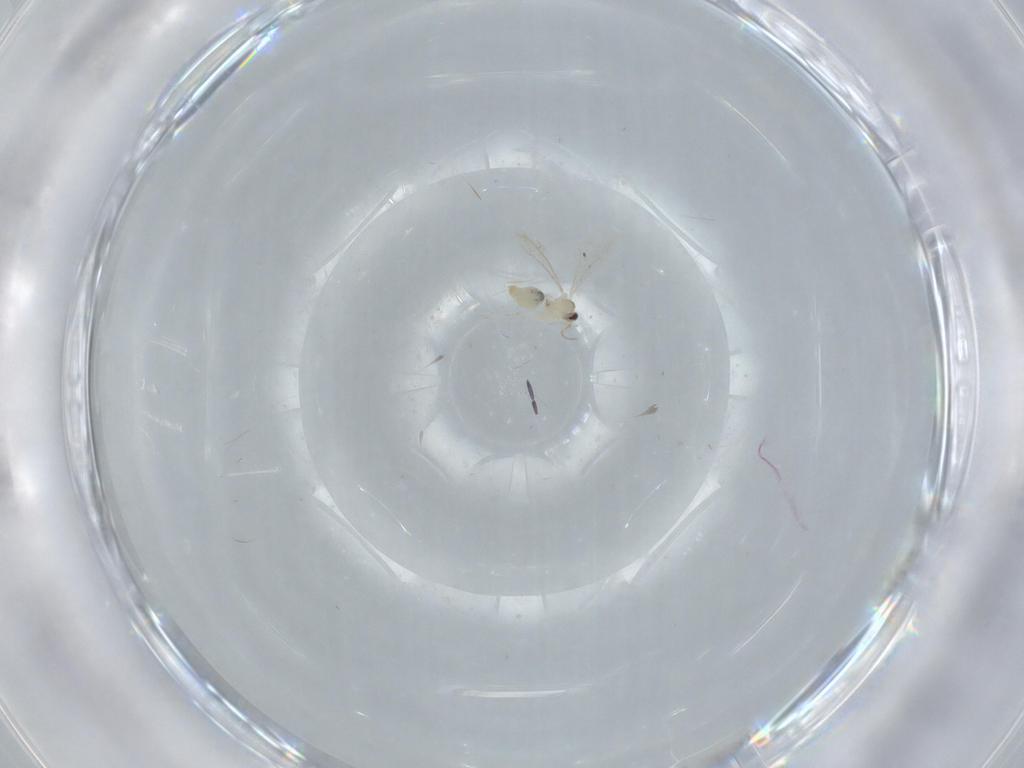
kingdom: Animalia
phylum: Arthropoda
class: Insecta
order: Diptera
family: Cecidomyiidae
